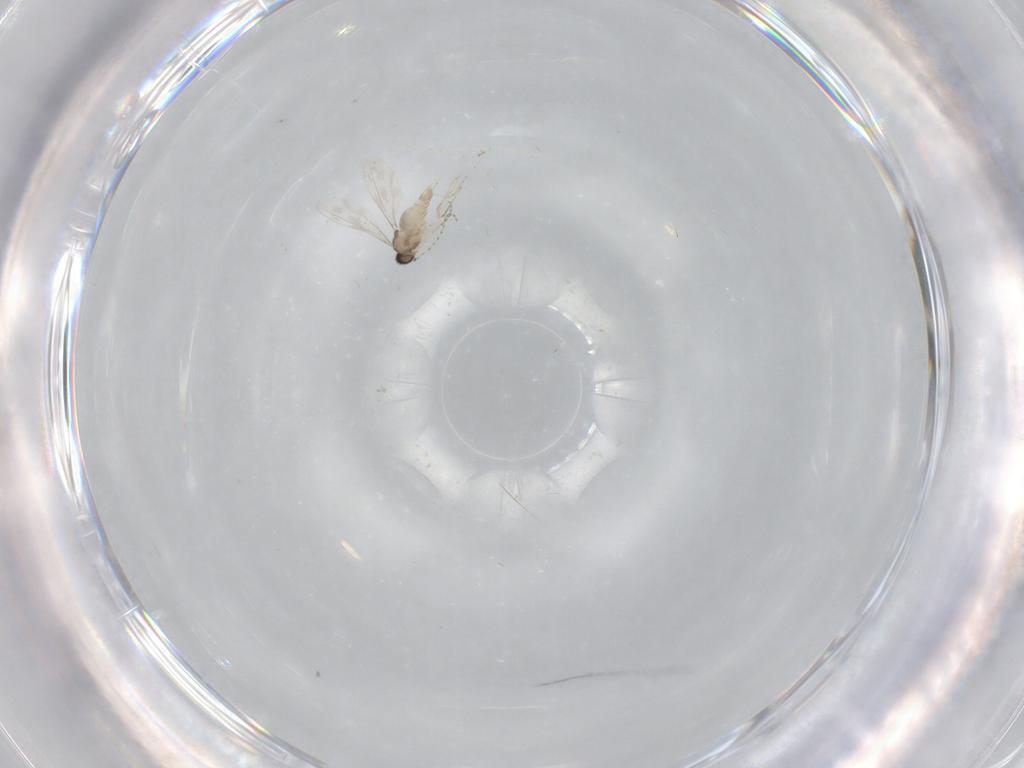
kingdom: Animalia
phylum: Arthropoda
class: Insecta
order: Diptera
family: Cecidomyiidae
